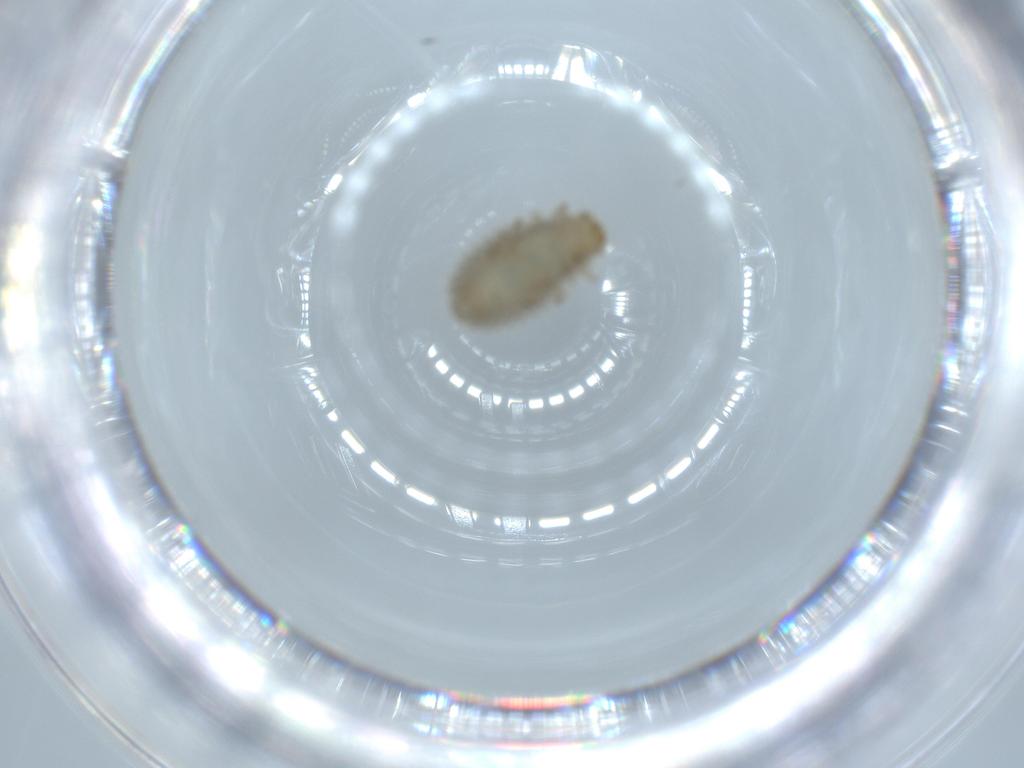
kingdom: Animalia
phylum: Arthropoda
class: Insecta
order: Coleoptera
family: Coccinellidae
